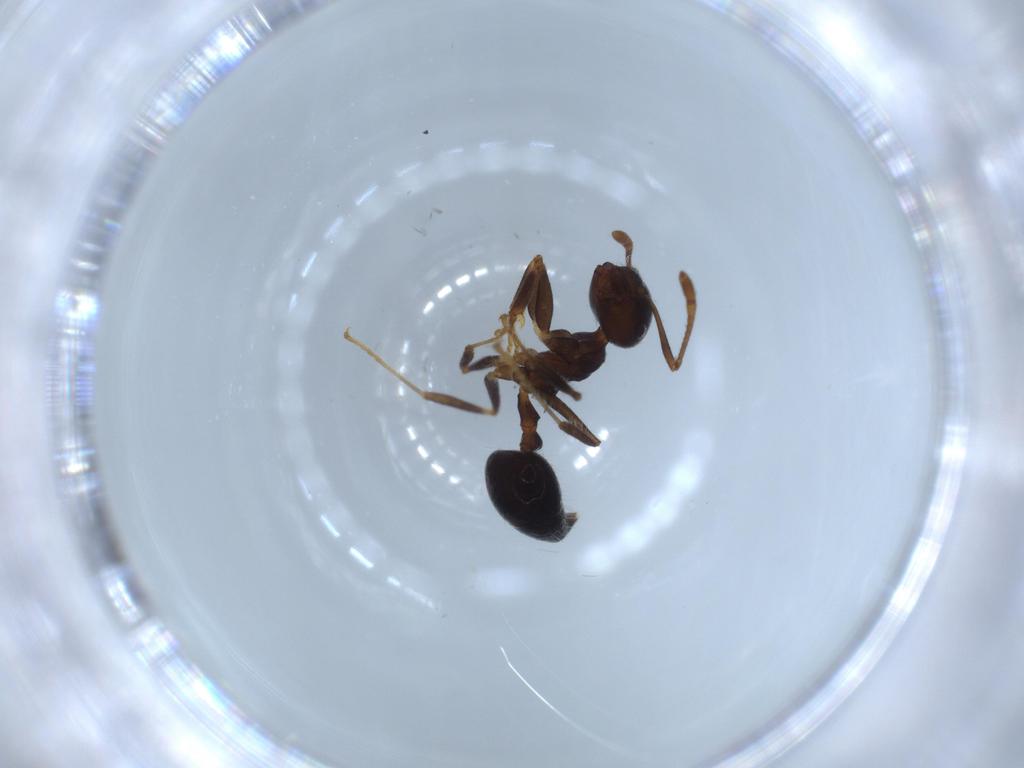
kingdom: Animalia
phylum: Arthropoda
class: Insecta
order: Hymenoptera
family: Formicidae
